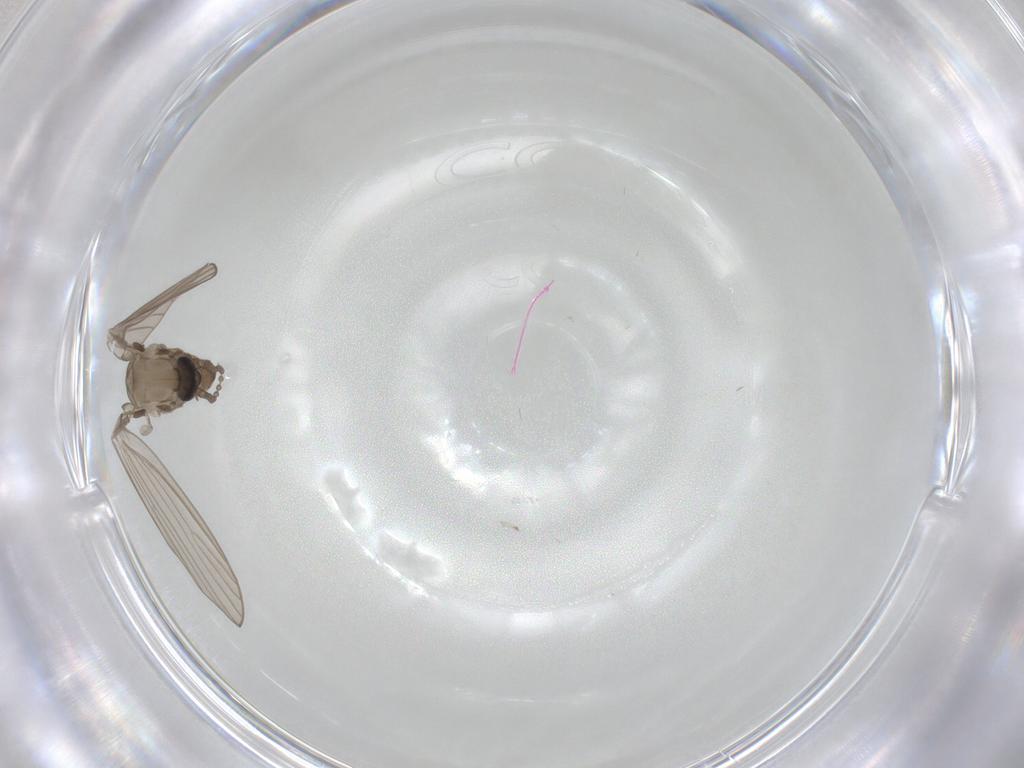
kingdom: Animalia
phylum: Arthropoda
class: Insecta
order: Diptera
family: Psychodidae
